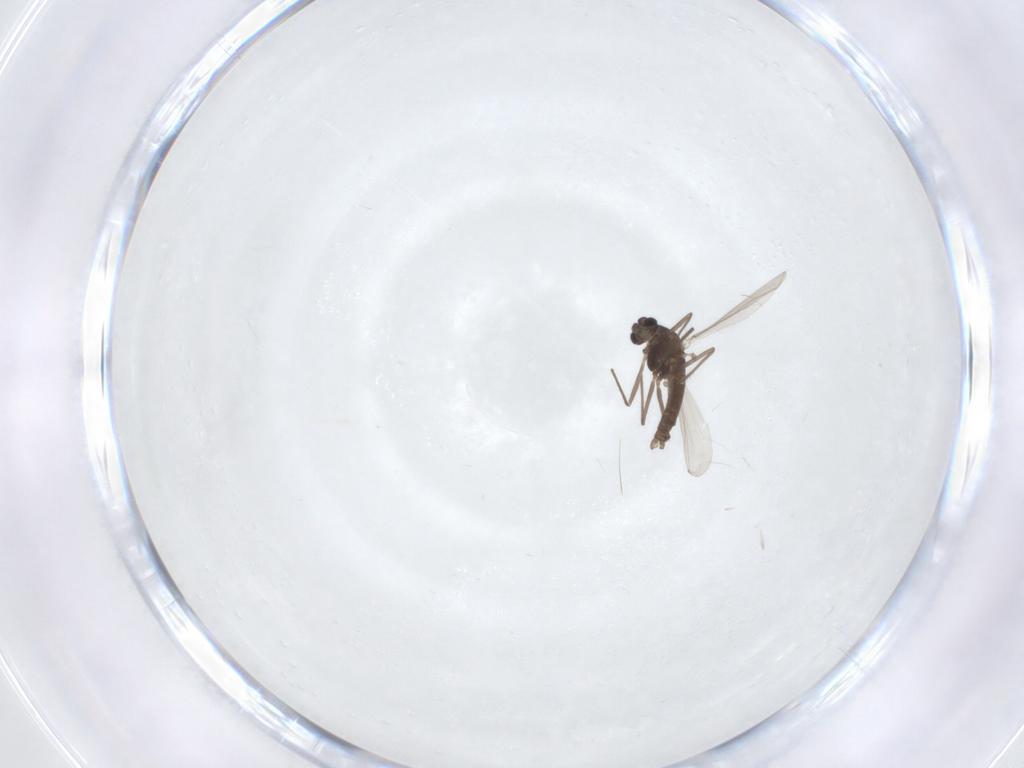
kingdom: Animalia
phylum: Arthropoda
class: Insecta
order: Diptera
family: Chironomidae
